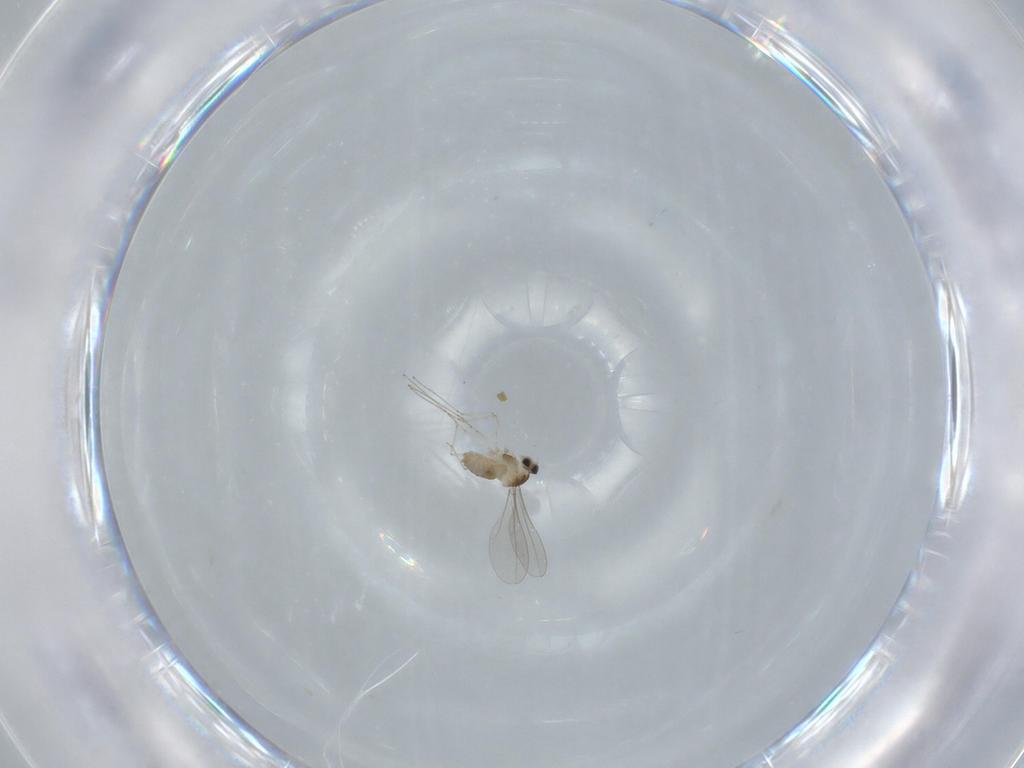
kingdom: Animalia
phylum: Arthropoda
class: Insecta
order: Diptera
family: Cecidomyiidae
